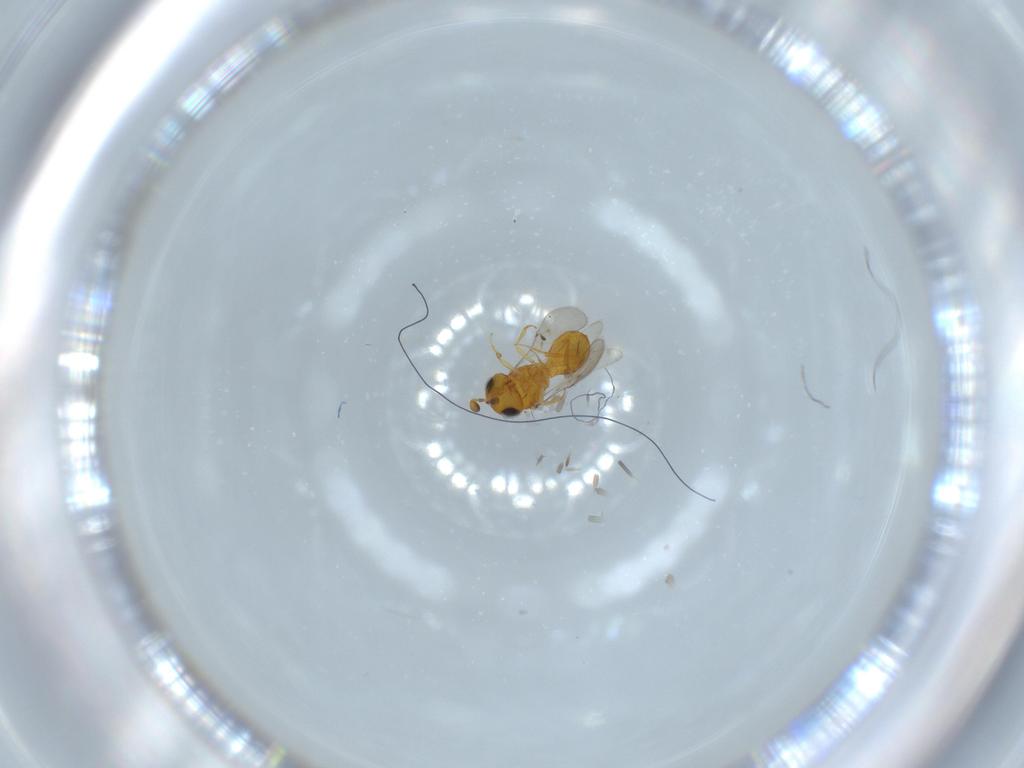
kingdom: Animalia
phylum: Arthropoda
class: Insecta
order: Hymenoptera
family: Scelionidae
